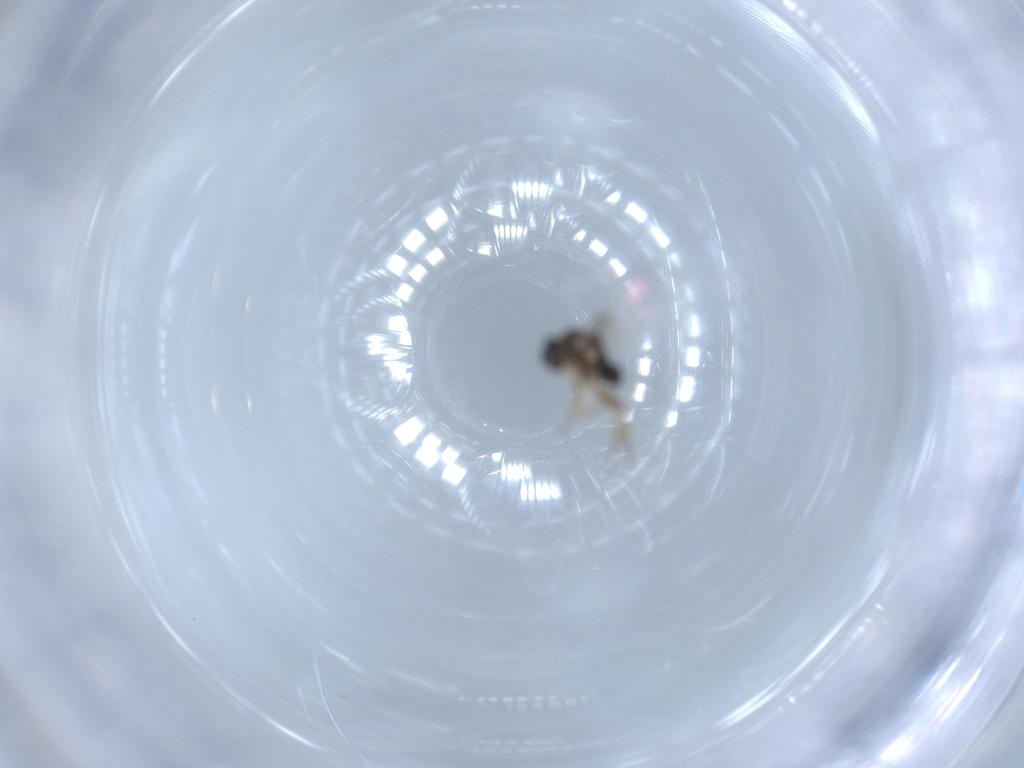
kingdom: Animalia
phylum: Arthropoda
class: Insecta
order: Diptera
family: Phoridae
